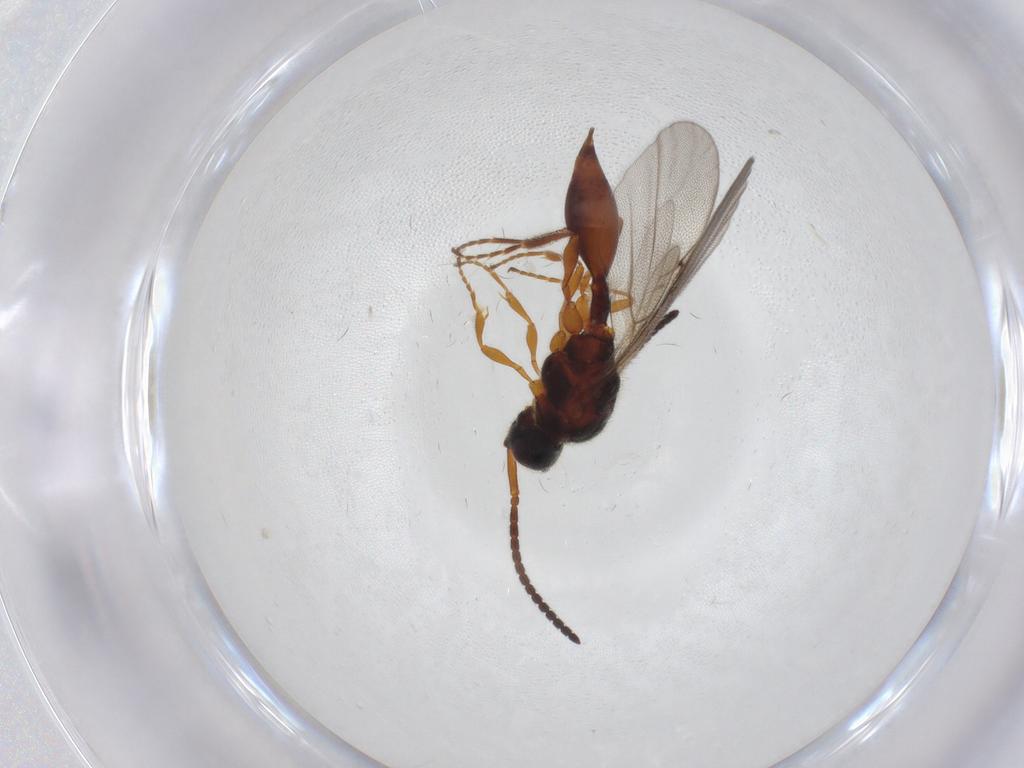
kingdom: Animalia
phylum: Arthropoda
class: Insecta
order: Hymenoptera
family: Diapriidae
